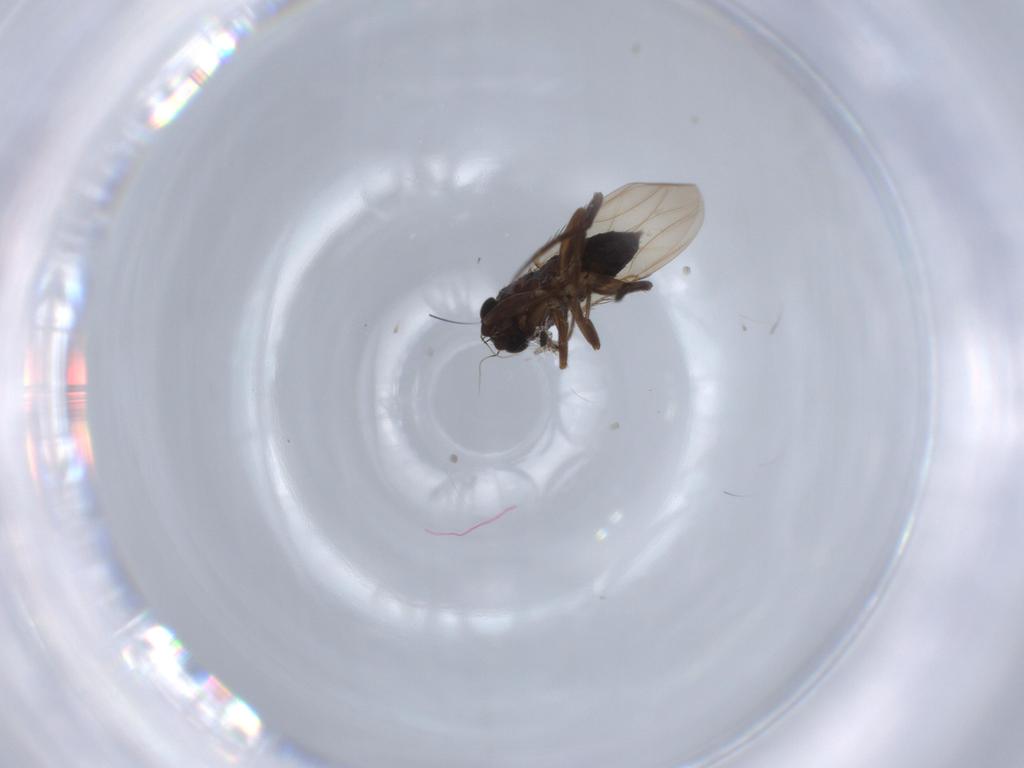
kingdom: Animalia
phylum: Arthropoda
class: Insecta
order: Diptera
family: Phoridae
